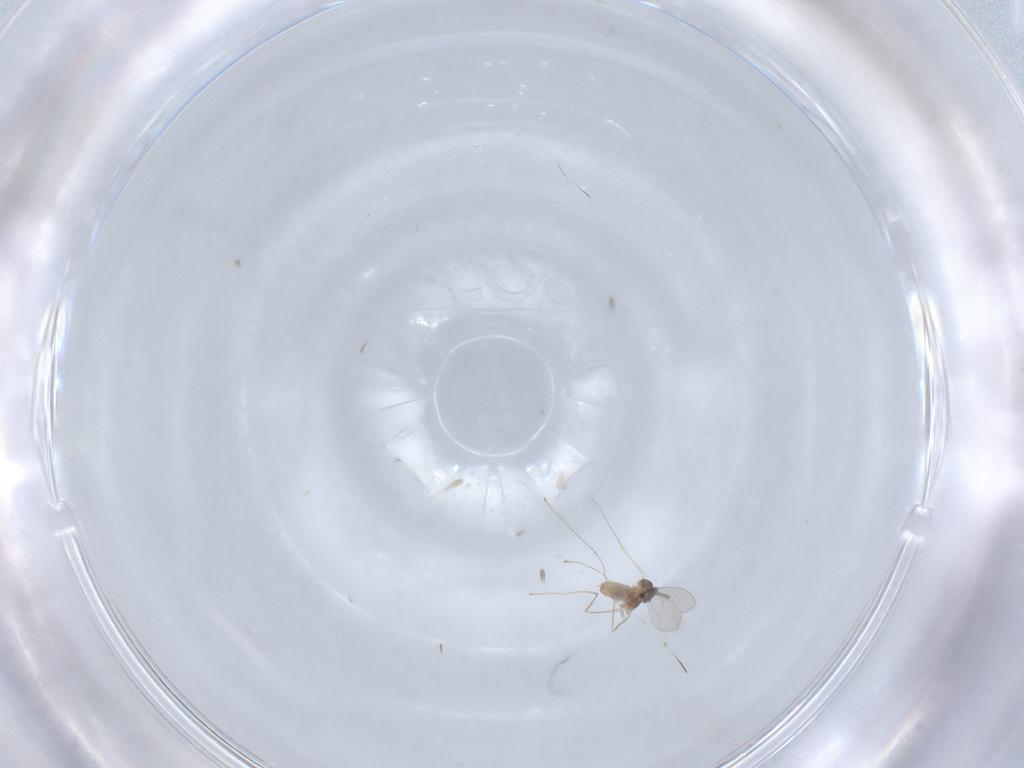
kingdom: Animalia
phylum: Arthropoda
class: Insecta
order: Diptera
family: Cecidomyiidae
